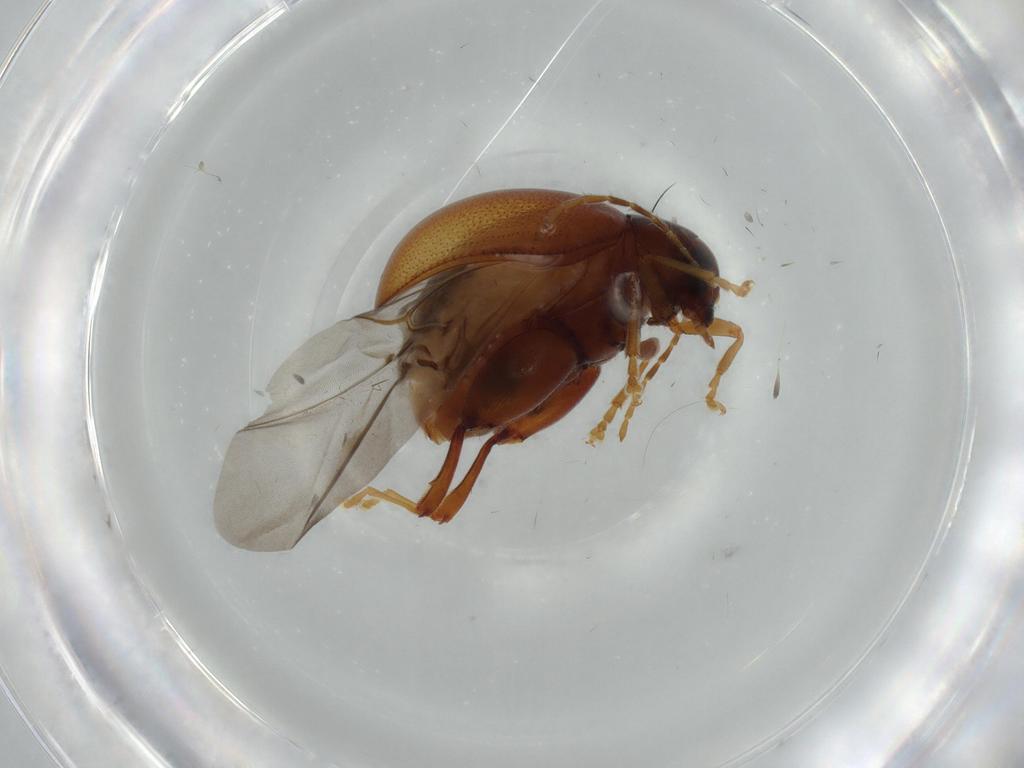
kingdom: Animalia
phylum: Arthropoda
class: Insecta
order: Coleoptera
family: Chrysomelidae
